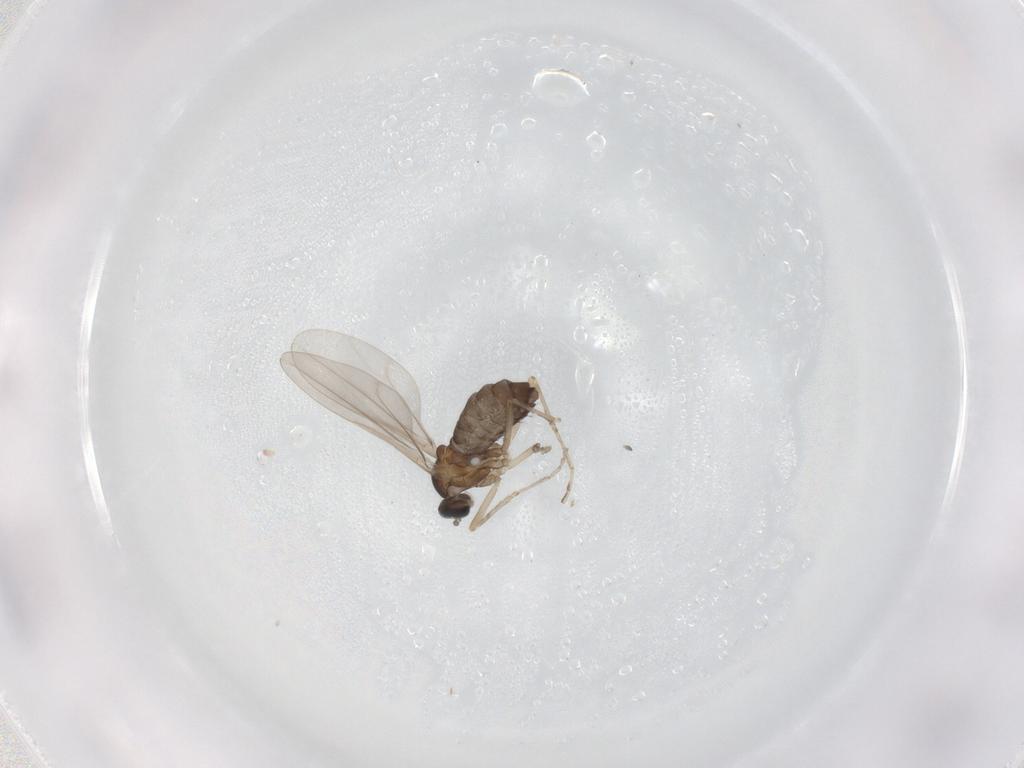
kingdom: Animalia
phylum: Arthropoda
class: Insecta
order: Diptera
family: Cecidomyiidae
